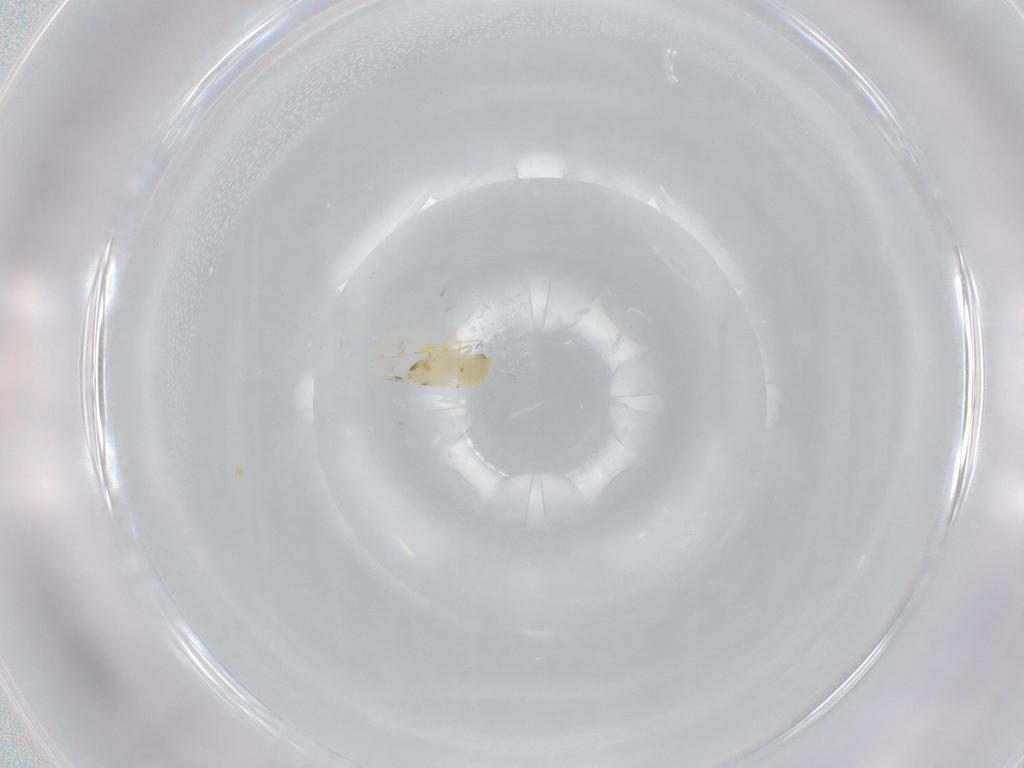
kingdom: Animalia
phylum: Arthropoda
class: Insecta
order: Hemiptera
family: Aleyrodidae
